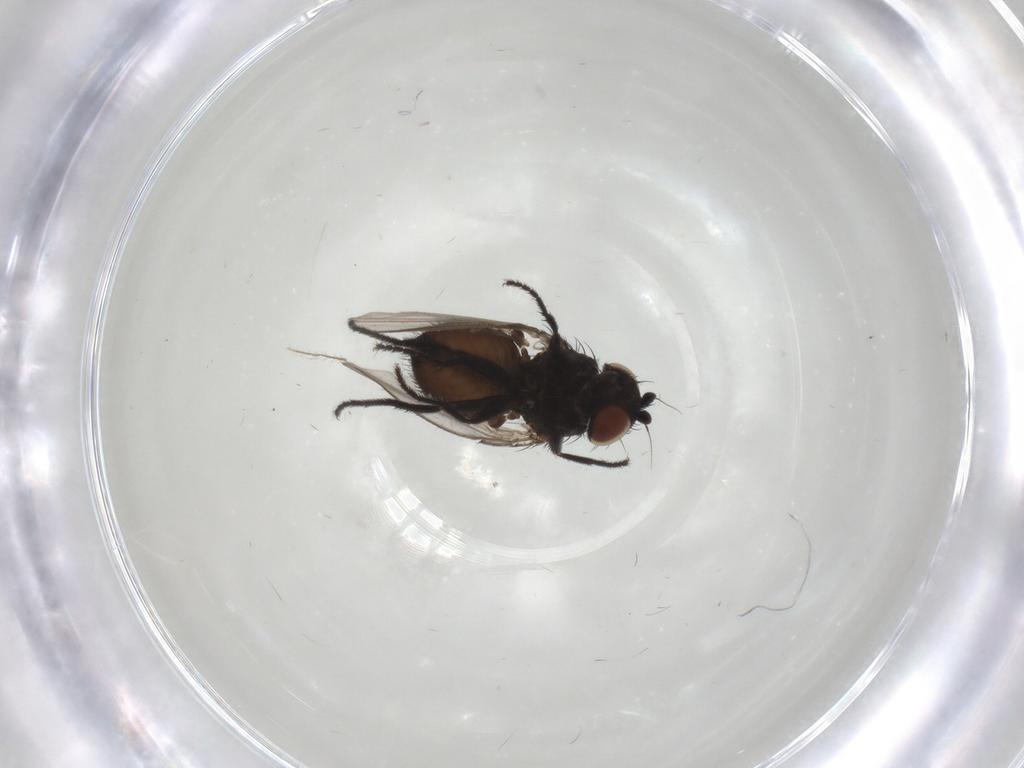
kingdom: Animalia
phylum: Arthropoda
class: Insecta
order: Diptera
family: Milichiidae
